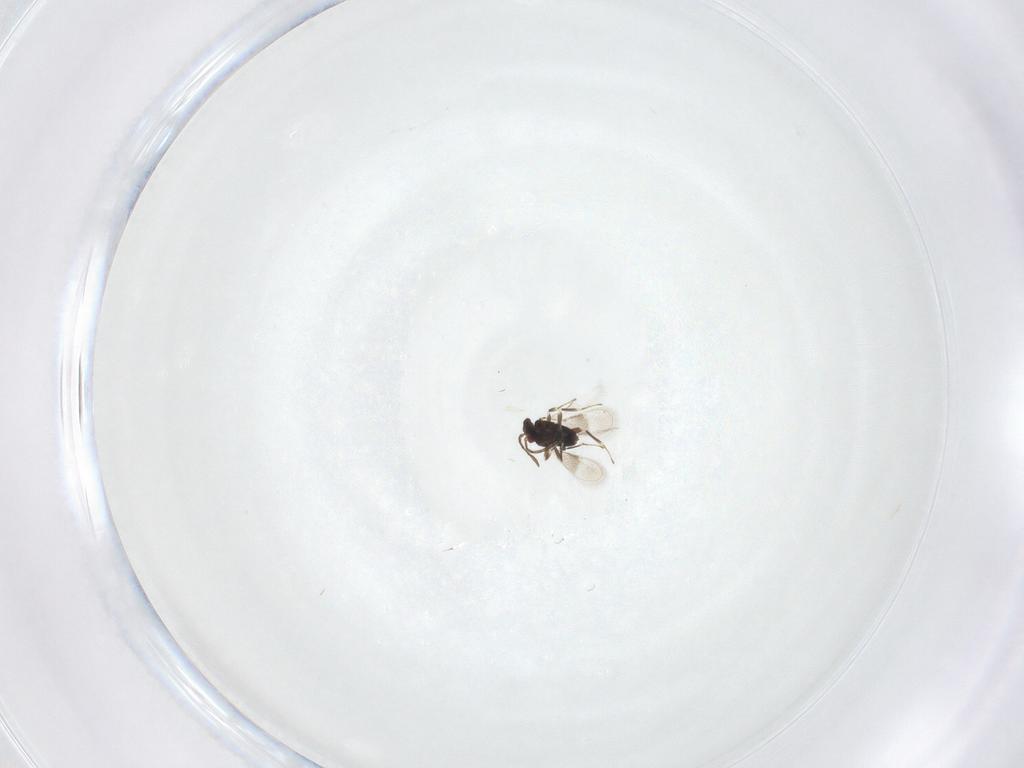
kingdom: Animalia
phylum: Arthropoda
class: Insecta
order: Hymenoptera
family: Azotidae
